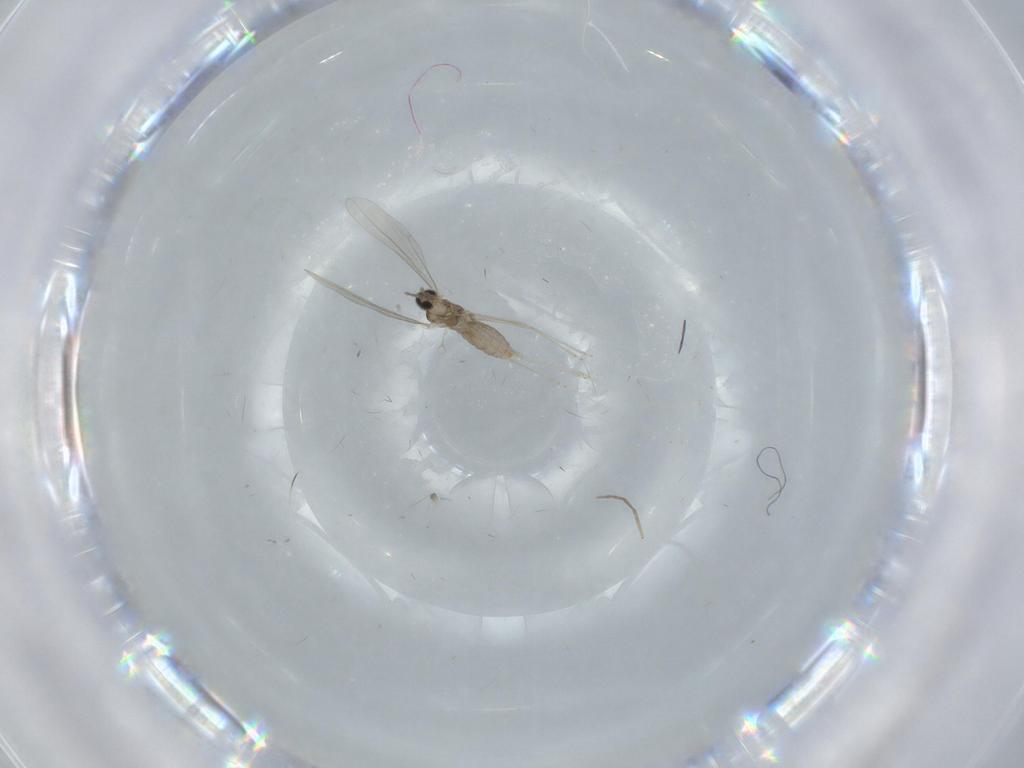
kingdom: Animalia
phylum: Arthropoda
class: Insecta
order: Diptera
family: Cecidomyiidae
